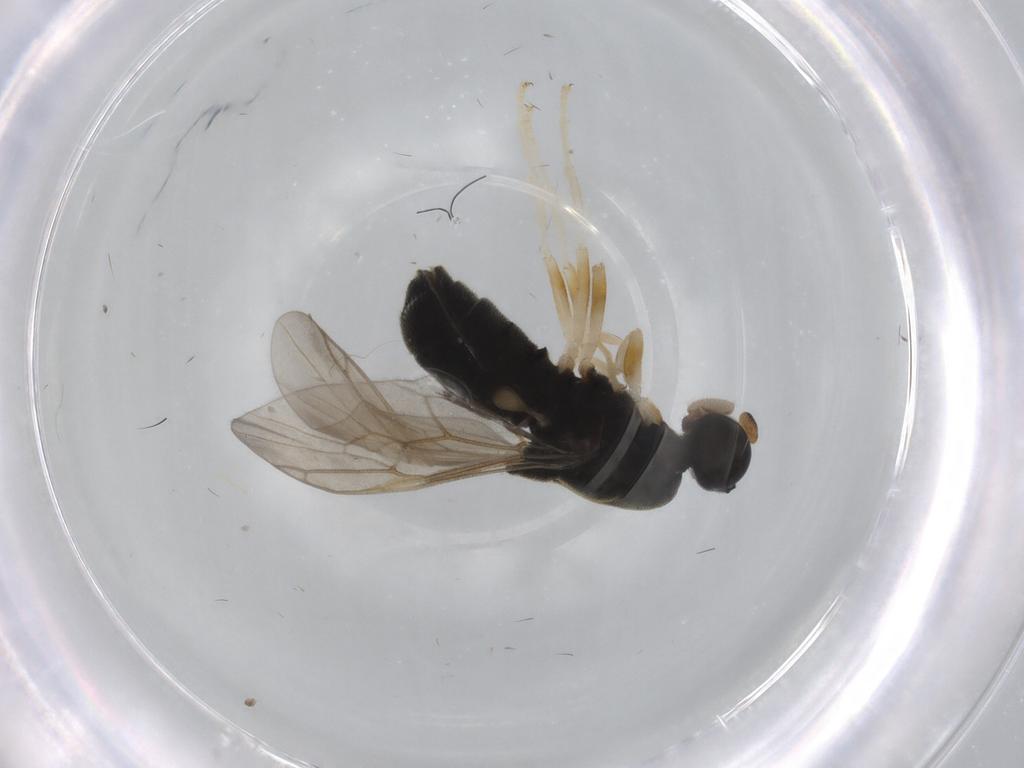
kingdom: Animalia
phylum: Arthropoda
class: Insecta
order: Diptera
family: Stratiomyidae
